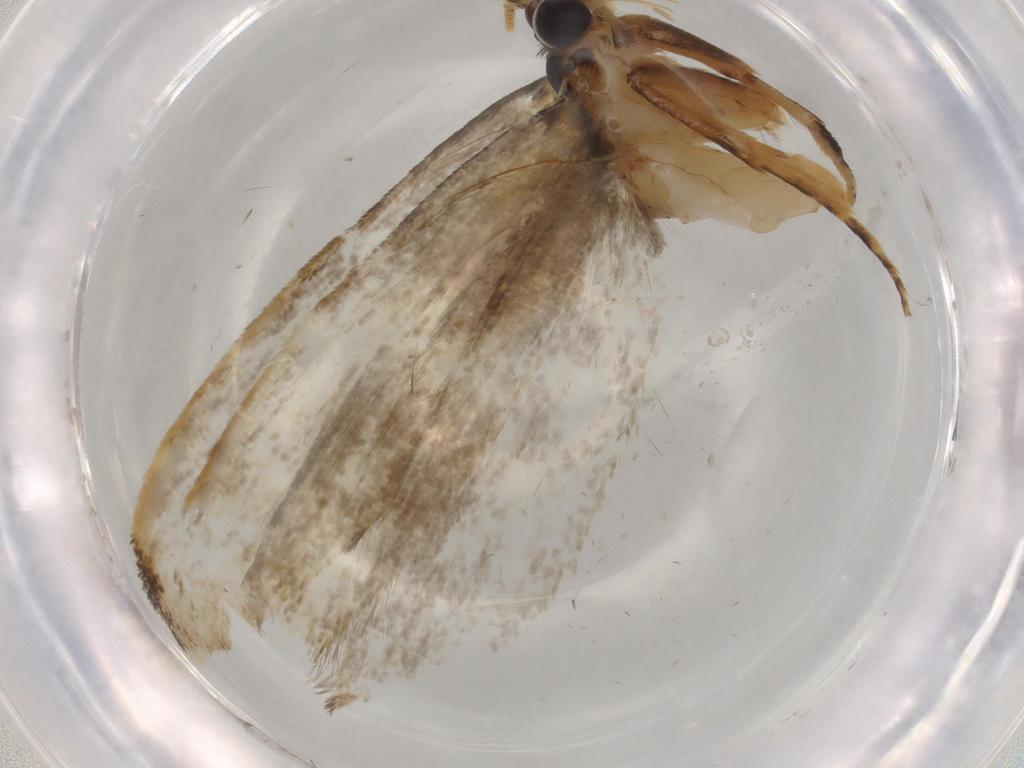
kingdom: Animalia
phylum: Arthropoda
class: Insecta
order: Lepidoptera
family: Tineidae
